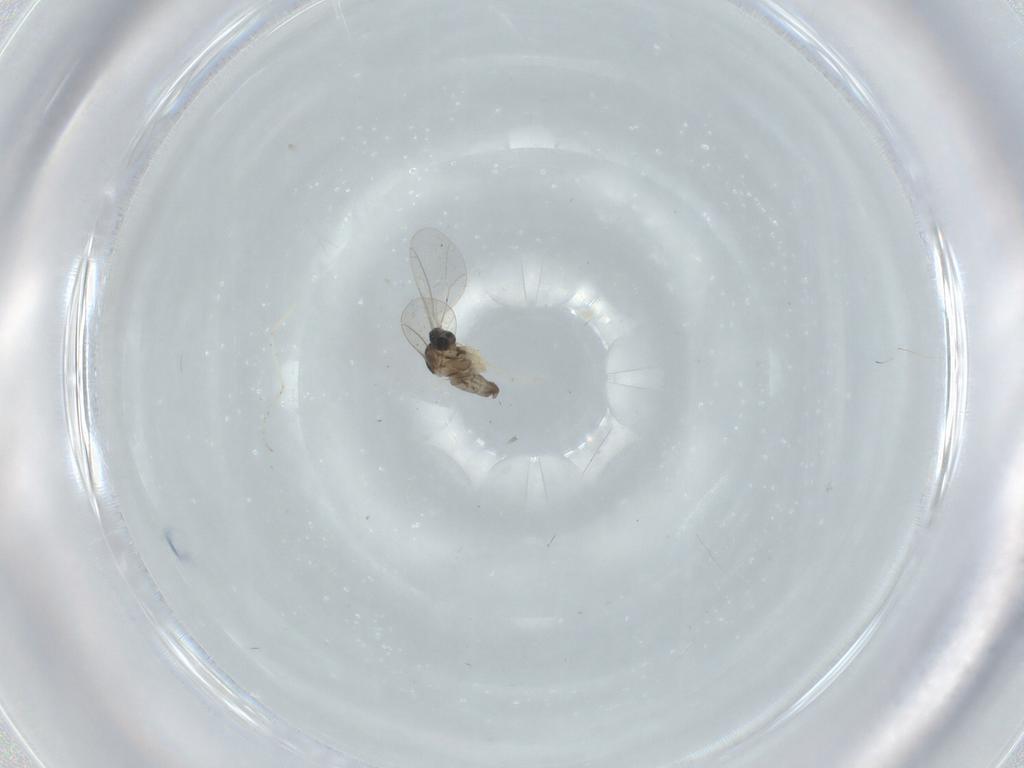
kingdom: Animalia
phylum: Arthropoda
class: Insecta
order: Diptera
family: Cecidomyiidae
